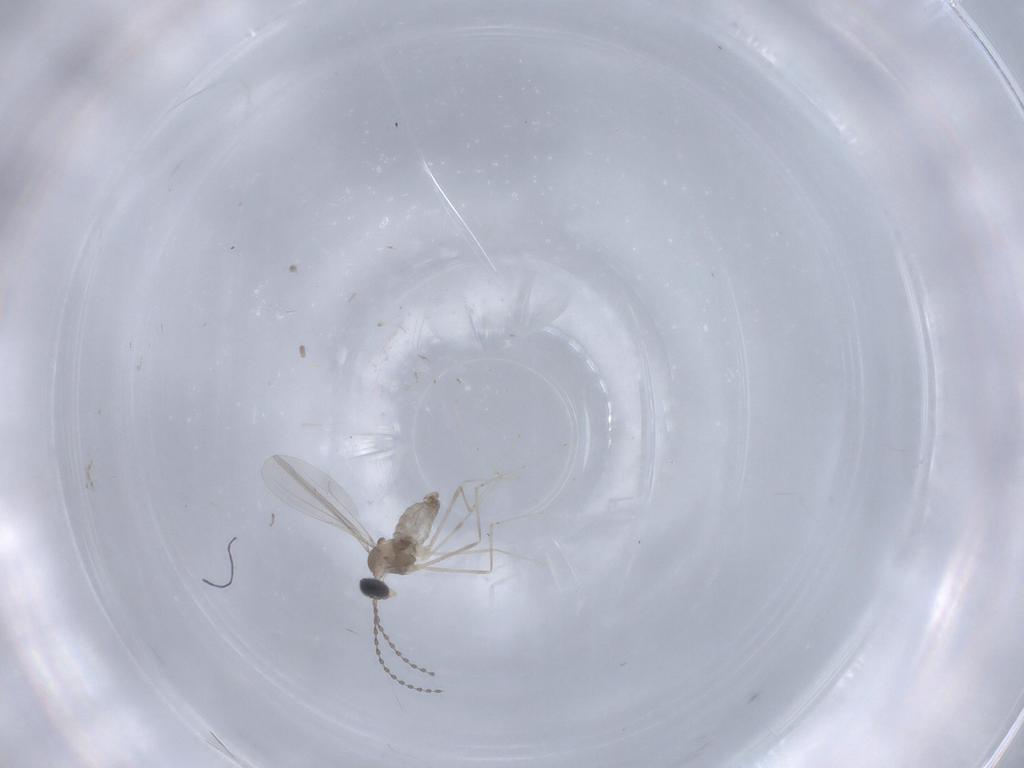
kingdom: Animalia
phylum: Arthropoda
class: Insecta
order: Diptera
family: Cecidomyiidae
